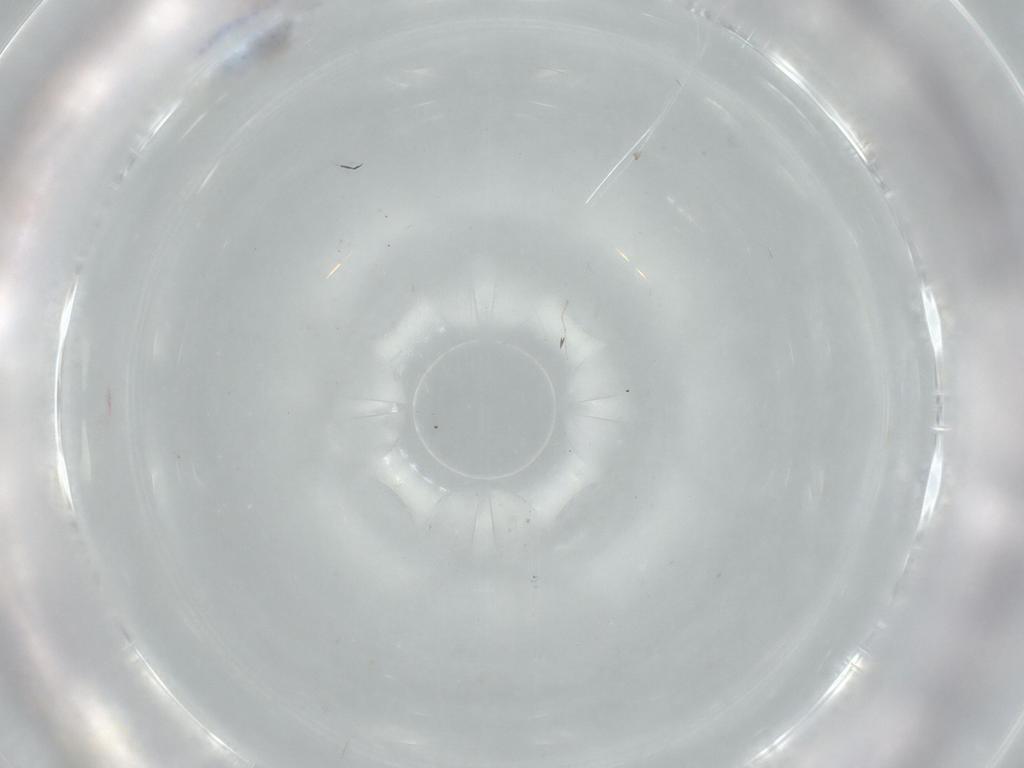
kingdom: Animalia
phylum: Arthropoda
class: Insecta
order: Diptera
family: Cecidomyiidae
